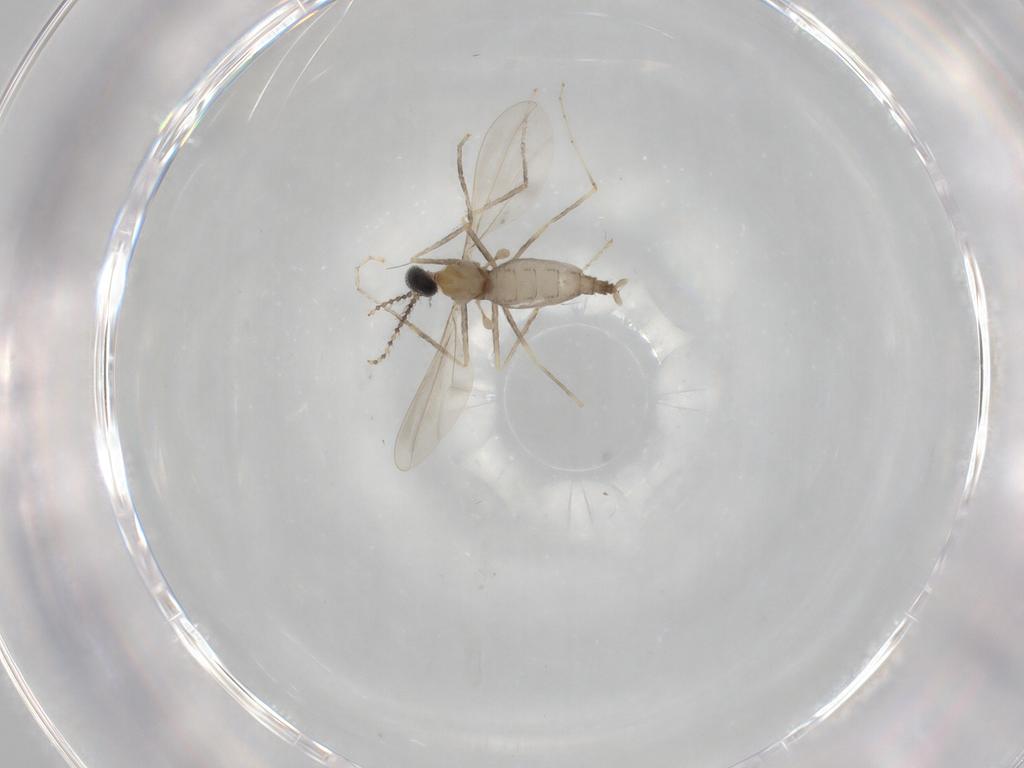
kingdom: Animalia
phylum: Arthropoda
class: Insecta
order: Diptera
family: Cecidomyiidae
